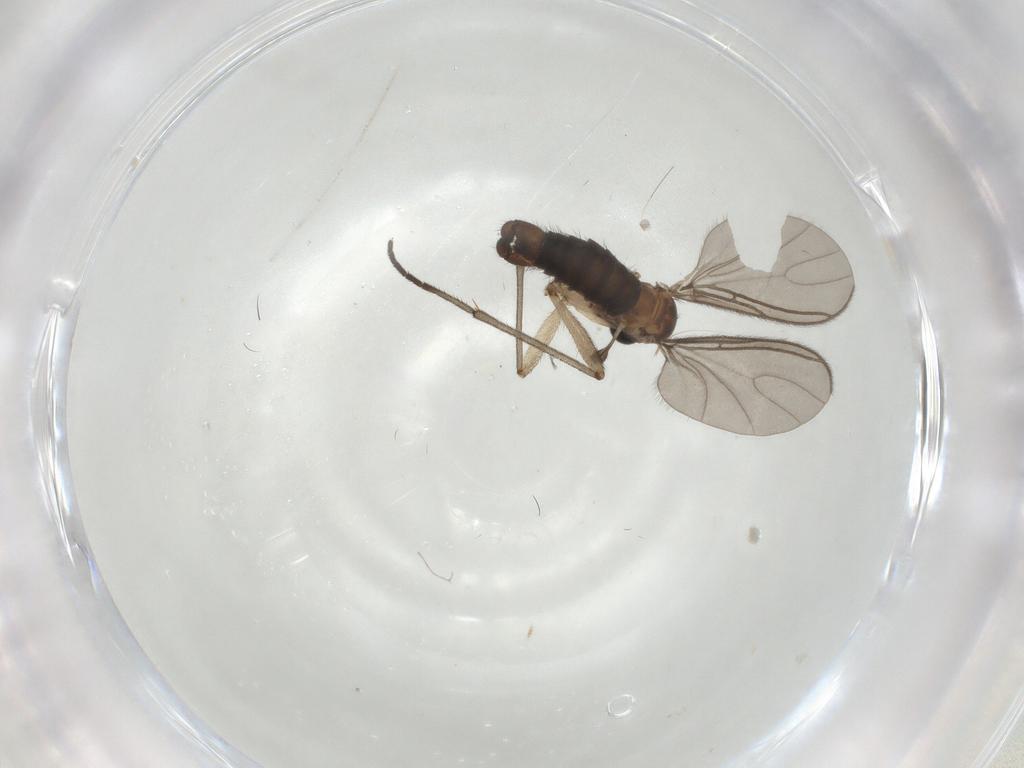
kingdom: Animalia
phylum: Arthropoda
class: Insecta
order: Diptera
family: Sciaridae
